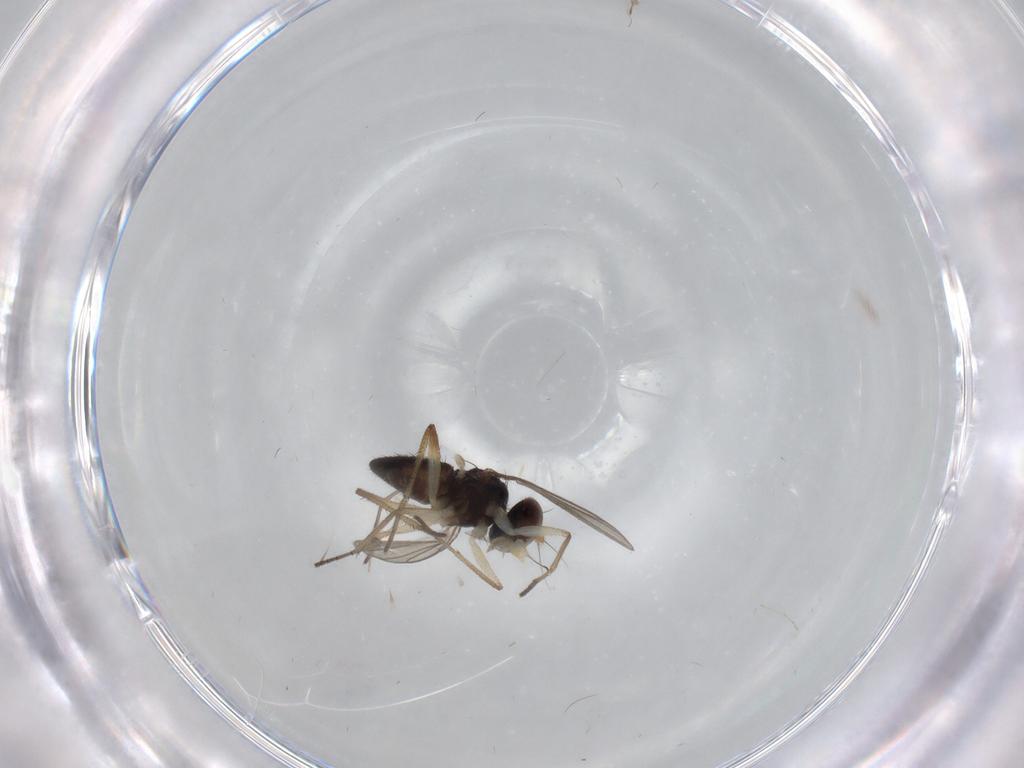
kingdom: Animalia
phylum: Arthropoda
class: Insecta
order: Diptera
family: Dolichopodidae
